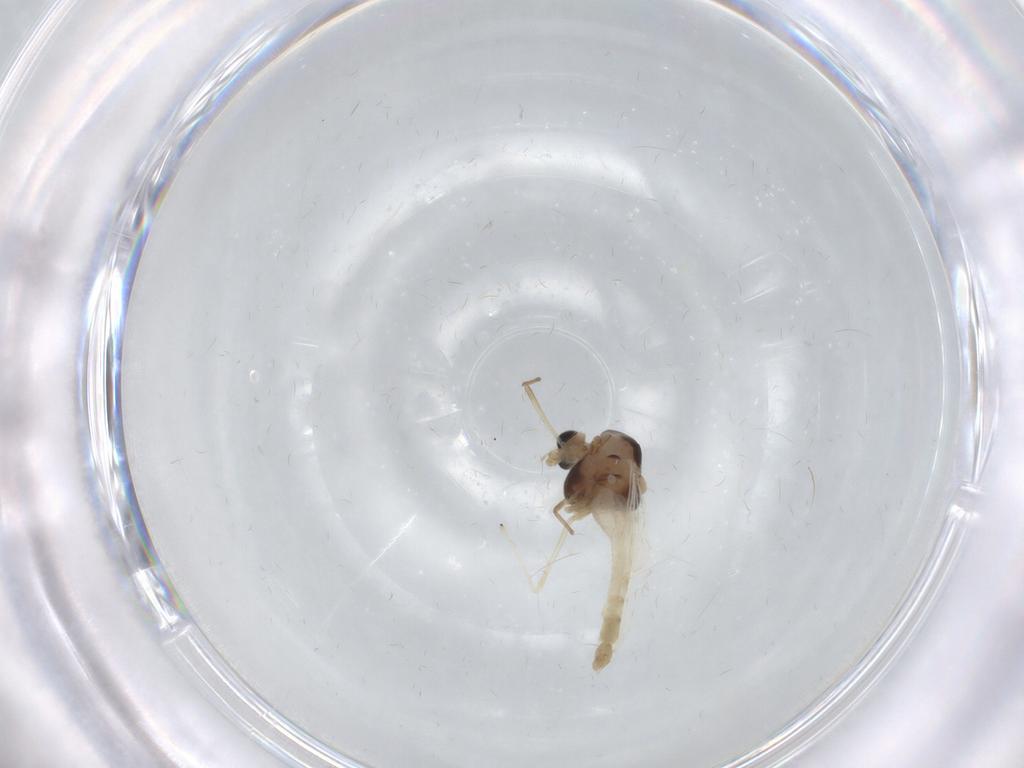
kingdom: Animalia
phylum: Arthropoda
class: Insecta
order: Diptera
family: Chironomidae
